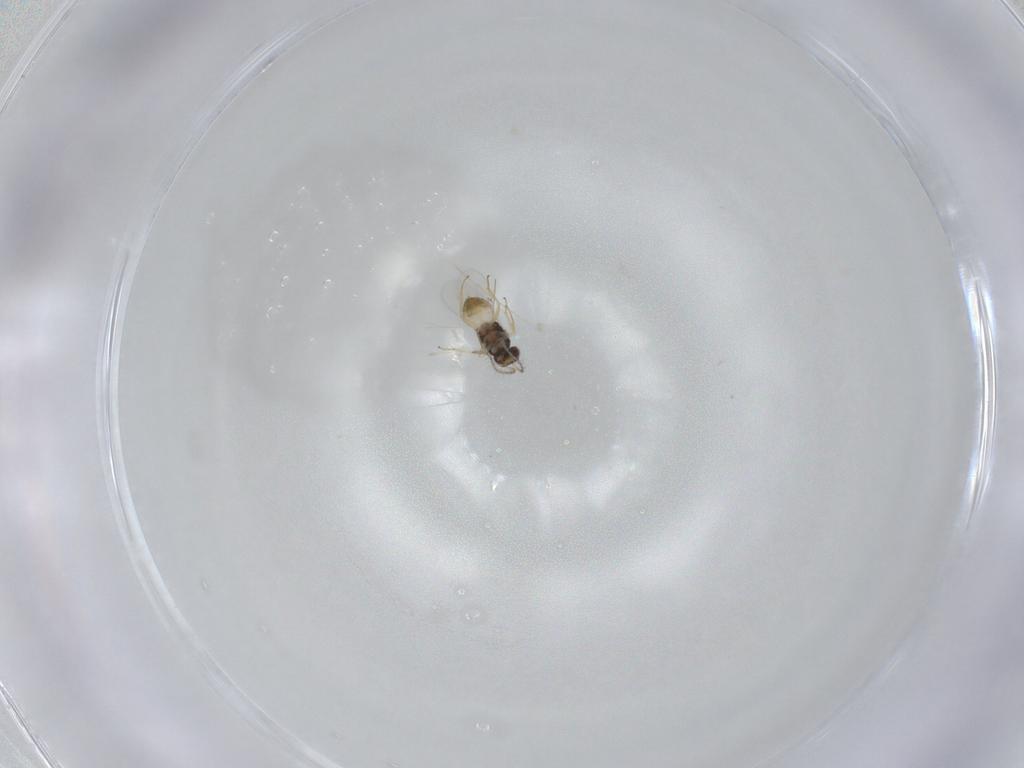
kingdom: Animalia
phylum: Arthropoda
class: Insecta
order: Hymenoptera
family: Encyrtidae
